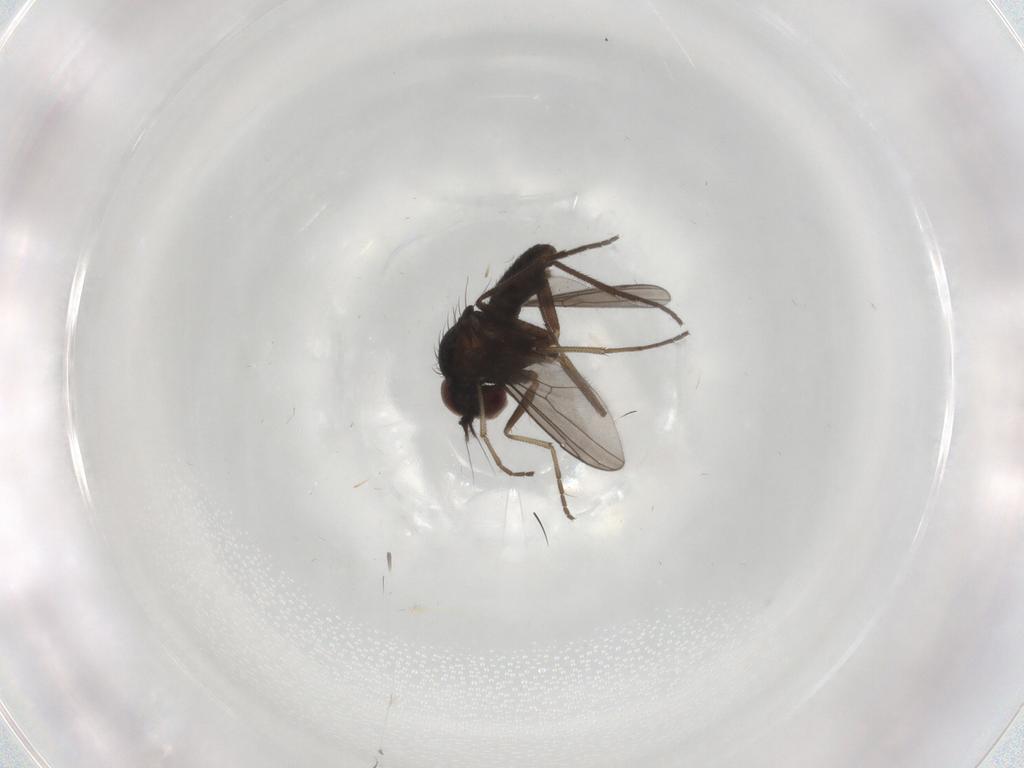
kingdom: Animalia
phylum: Arthropoda
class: Insecta
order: Diptera
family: Dolichopodidae
